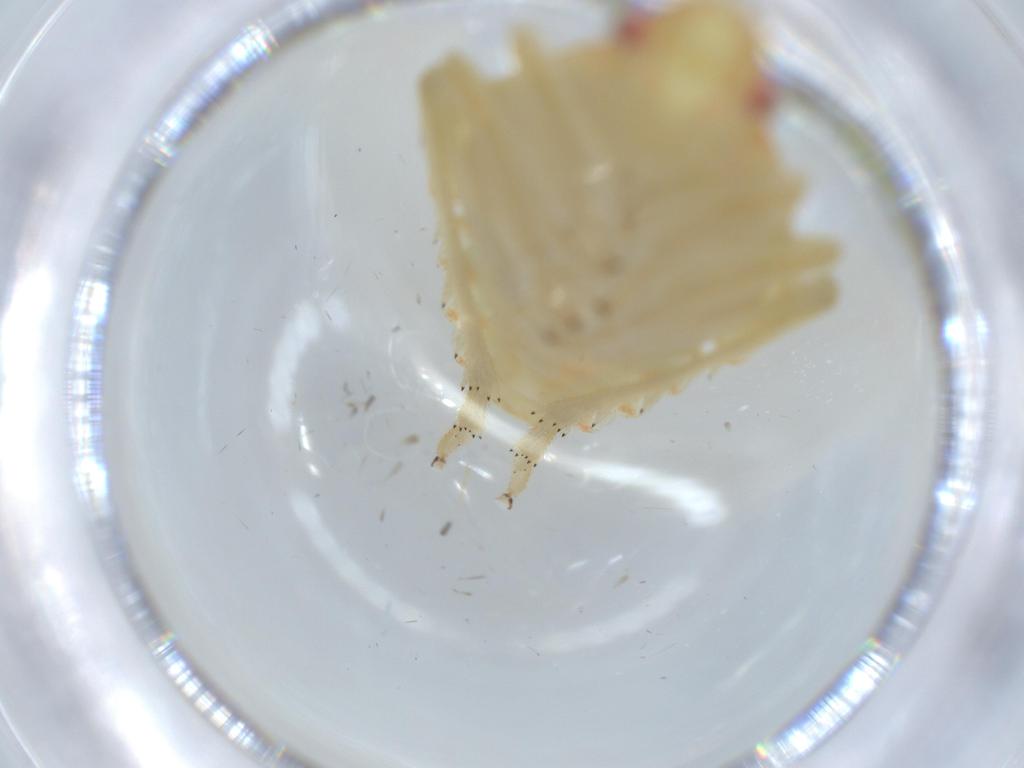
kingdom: Animalia
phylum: Arthropoda
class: Insecta
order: Hemiptera
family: Tropiduchidae
